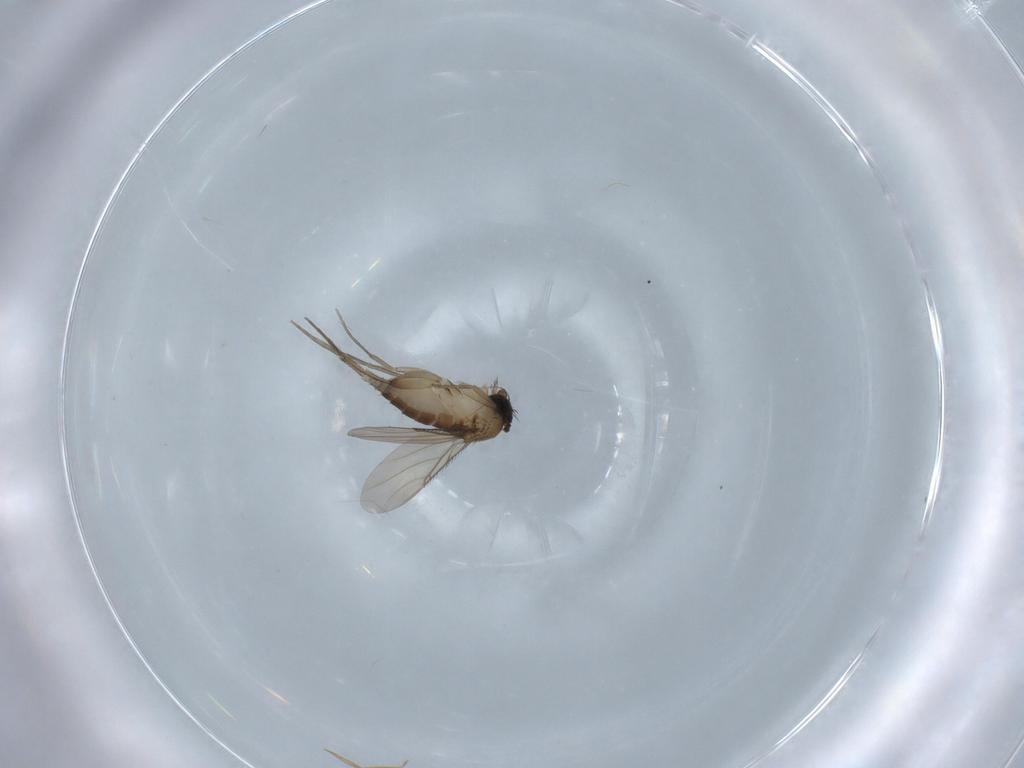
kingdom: Animalia
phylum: Arthropoda
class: Insecta
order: Diptera
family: Phoridae
